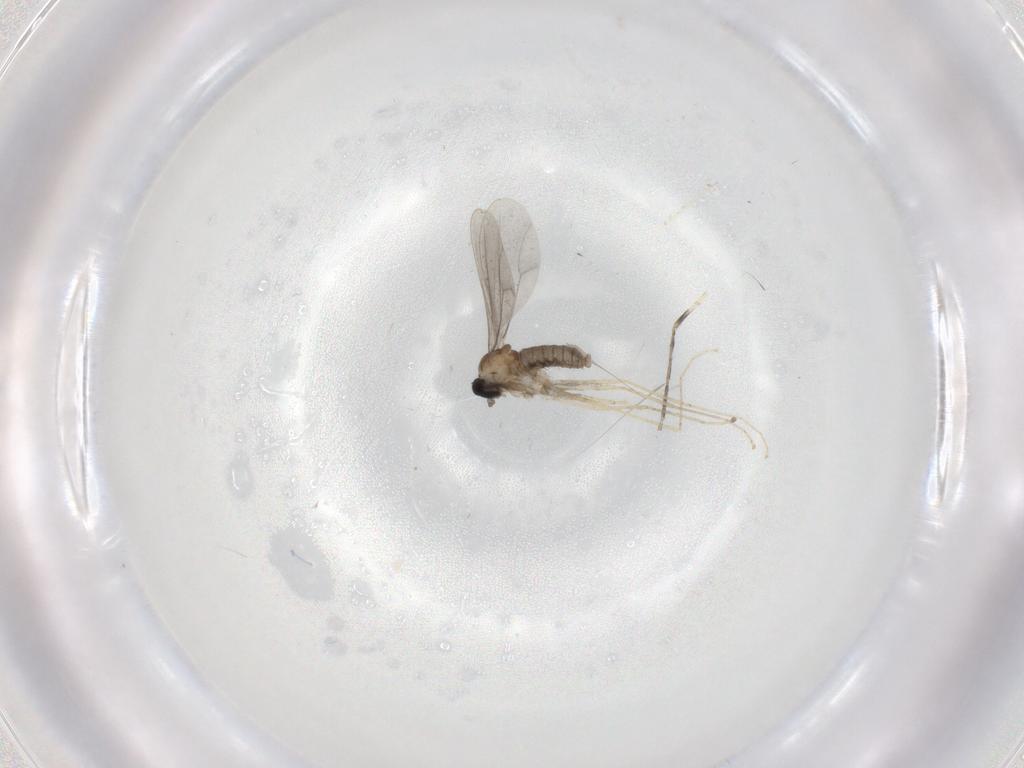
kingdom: Animalia
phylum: Arthropoda
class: Insecta
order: Diptera
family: Cecidomyiidae
